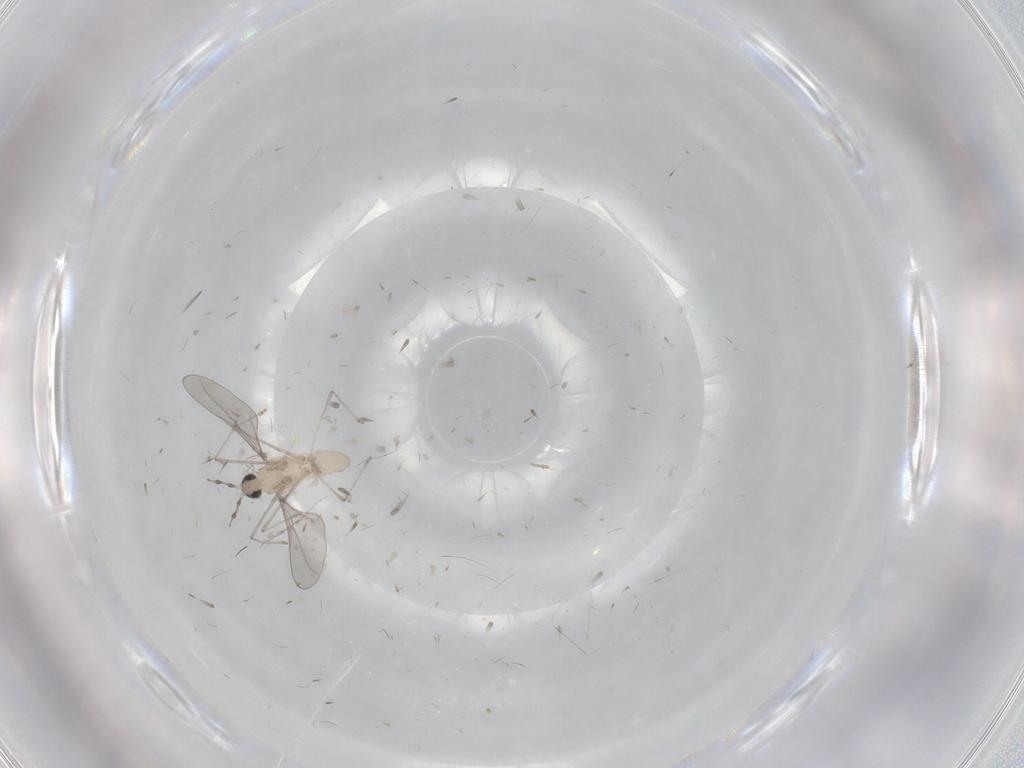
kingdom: Animalia
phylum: Arthropoda
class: Insecta
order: Diptera
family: Cecidomyiidae
